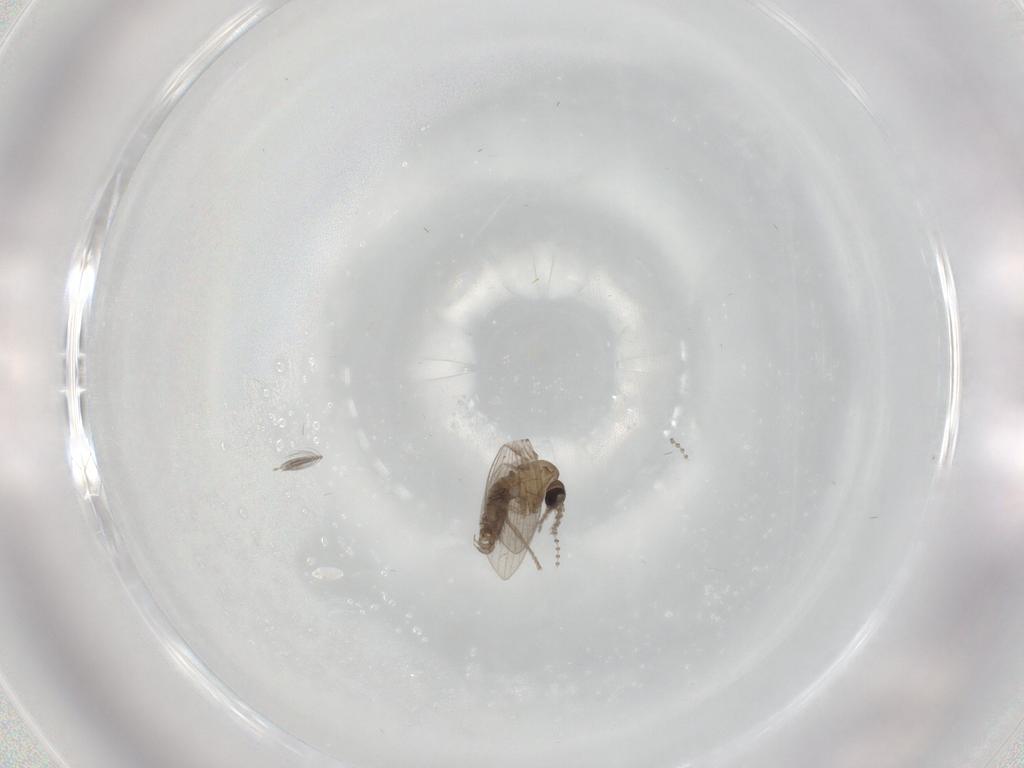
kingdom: Animalia
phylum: Arthropoda
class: Insecta
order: Diptera
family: Psychodidae
